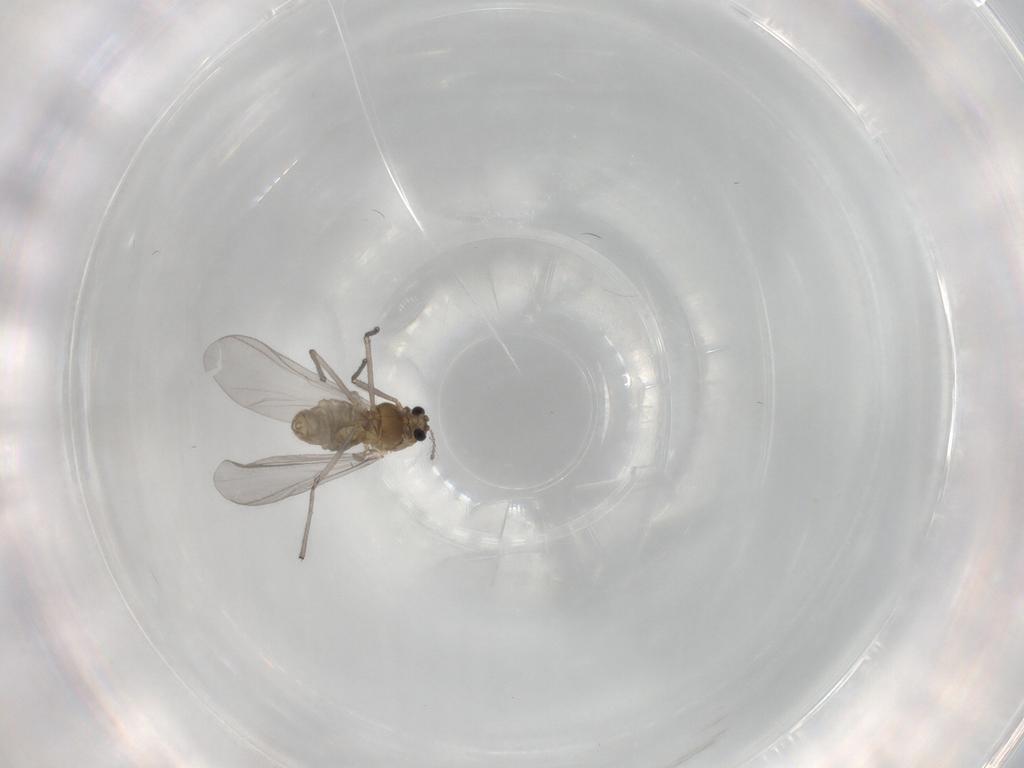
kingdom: Animalia
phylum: Arthropoda
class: Insecta
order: Diptera
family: Chironomidae
